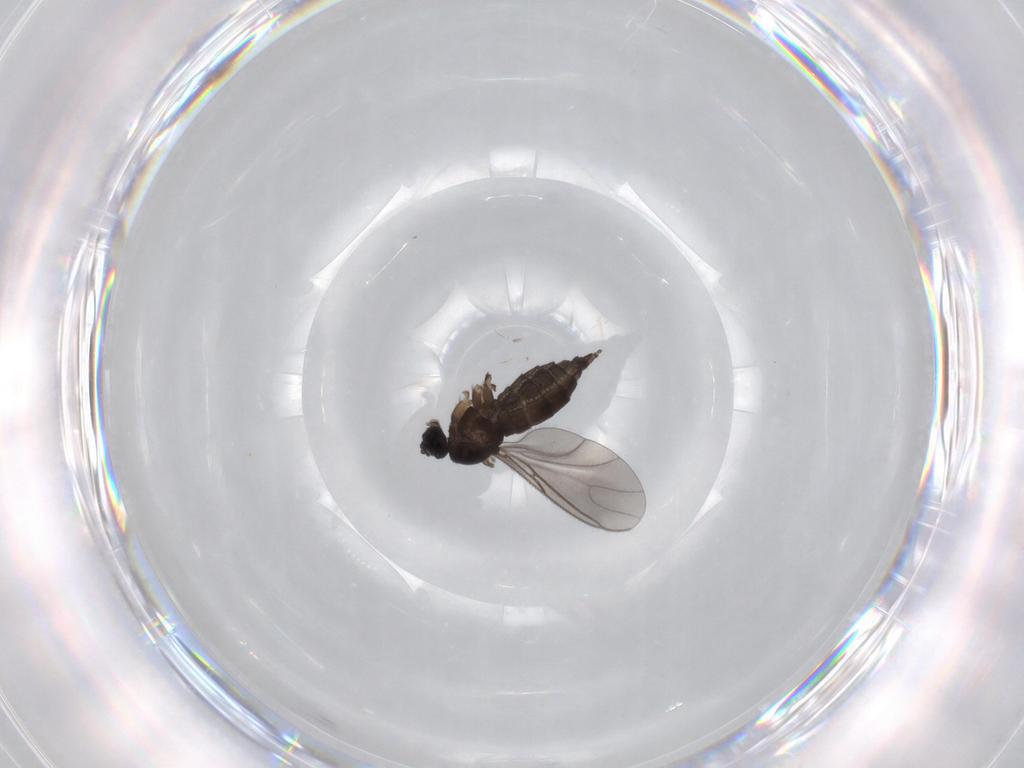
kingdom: Animalia
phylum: Arthropoda
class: Insecta
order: Diptera
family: Sciaridae
